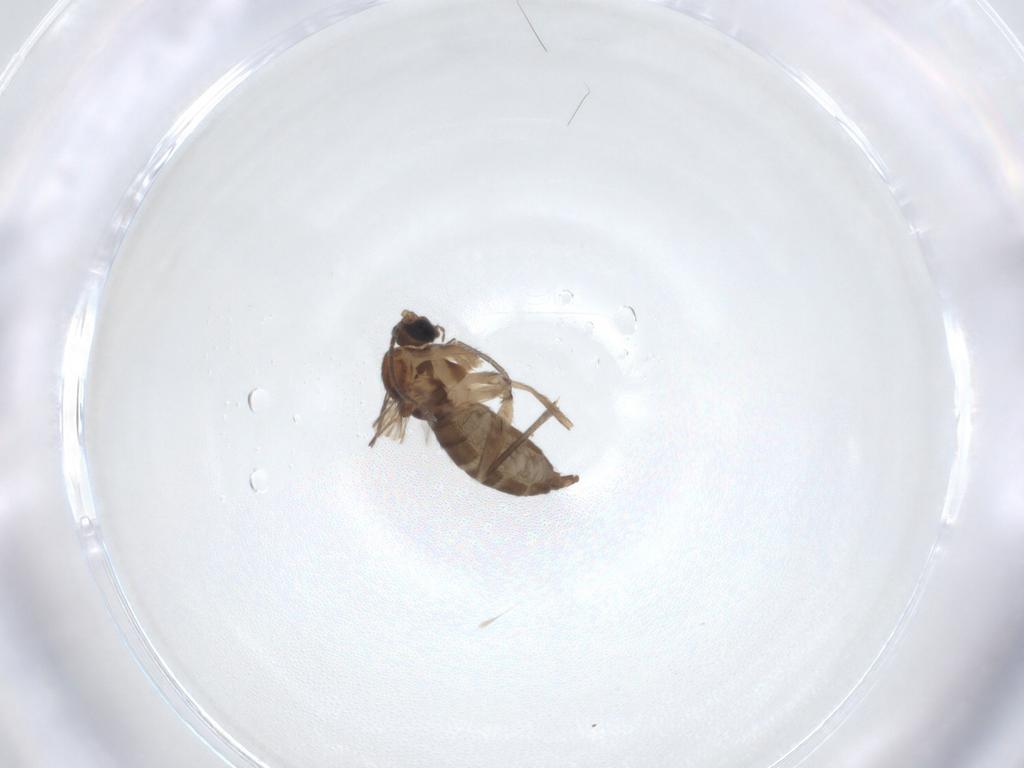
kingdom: Animalia
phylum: Arthropoda
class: Insecta
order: Diptera
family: Sciaridae
